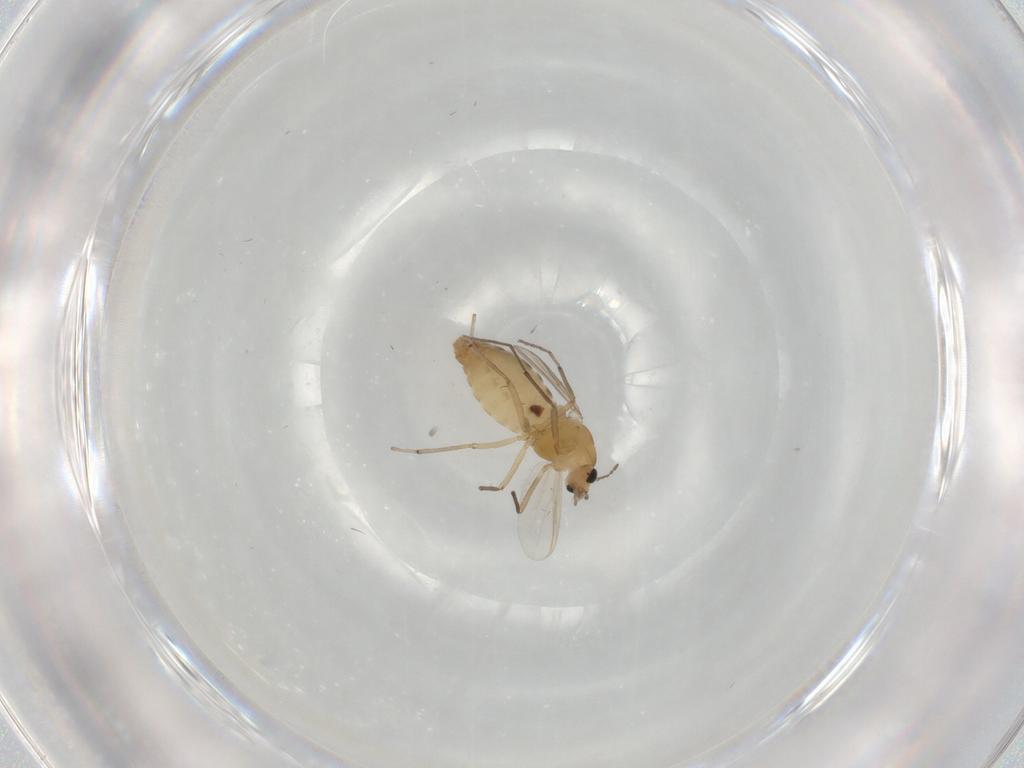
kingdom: Animalia
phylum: Arthropoda
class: Insecta
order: Diptera
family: Chironomidae
